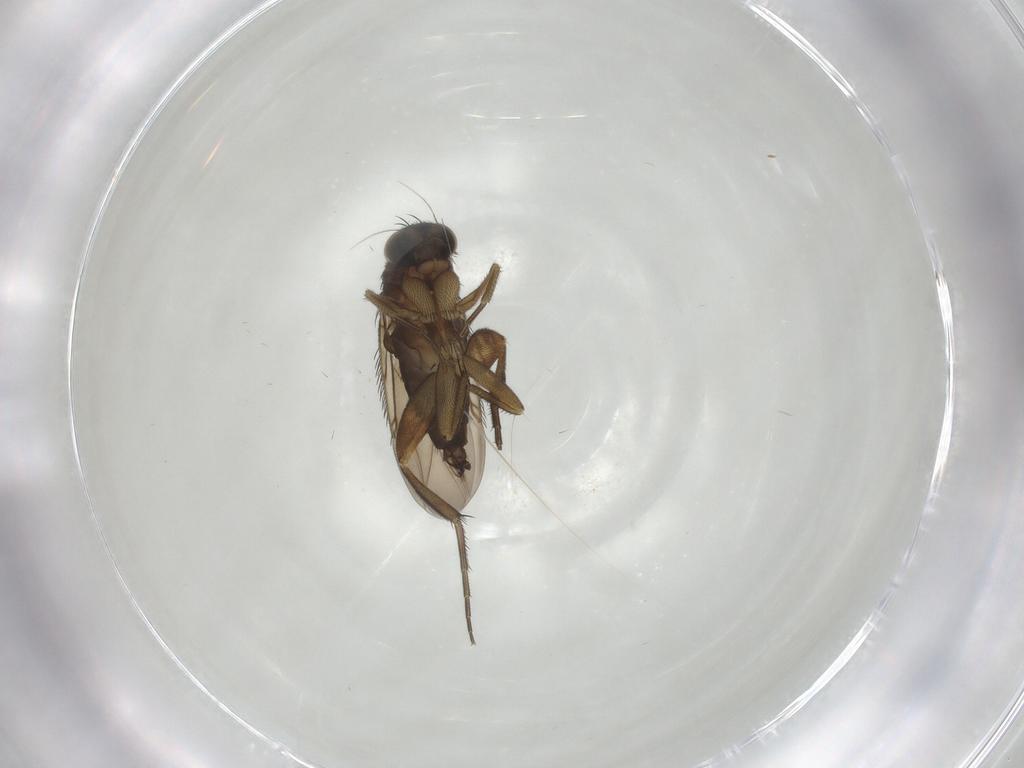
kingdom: Animalia
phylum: Arthropoda
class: Insecta
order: Diptera
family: Phoridae
